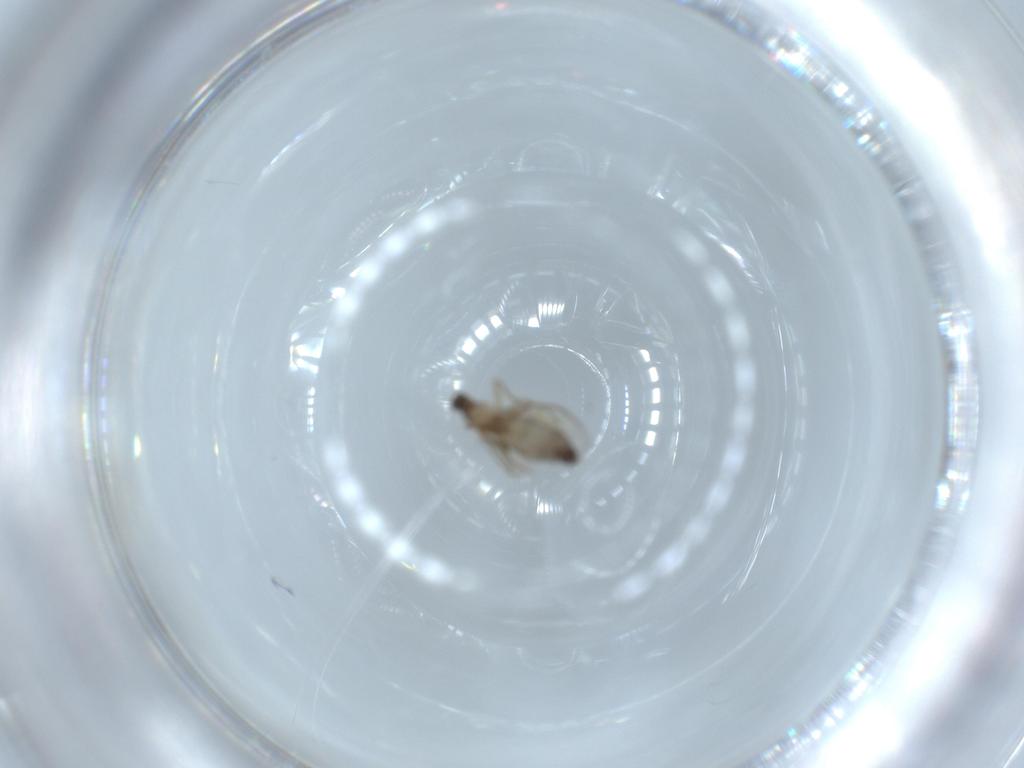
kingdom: Animalia
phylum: Arthropoda
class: Insecta
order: Diptera
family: Phoridae
